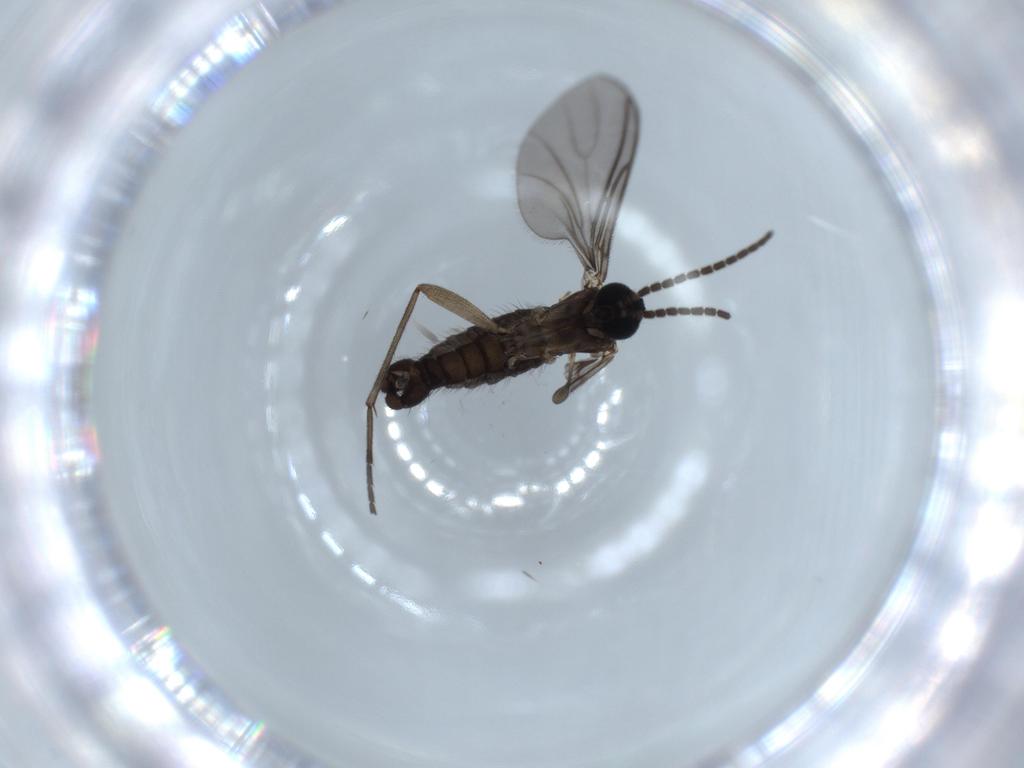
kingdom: Animalia
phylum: Arthropoda
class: Insecta
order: Diptera
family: Sciaridae
